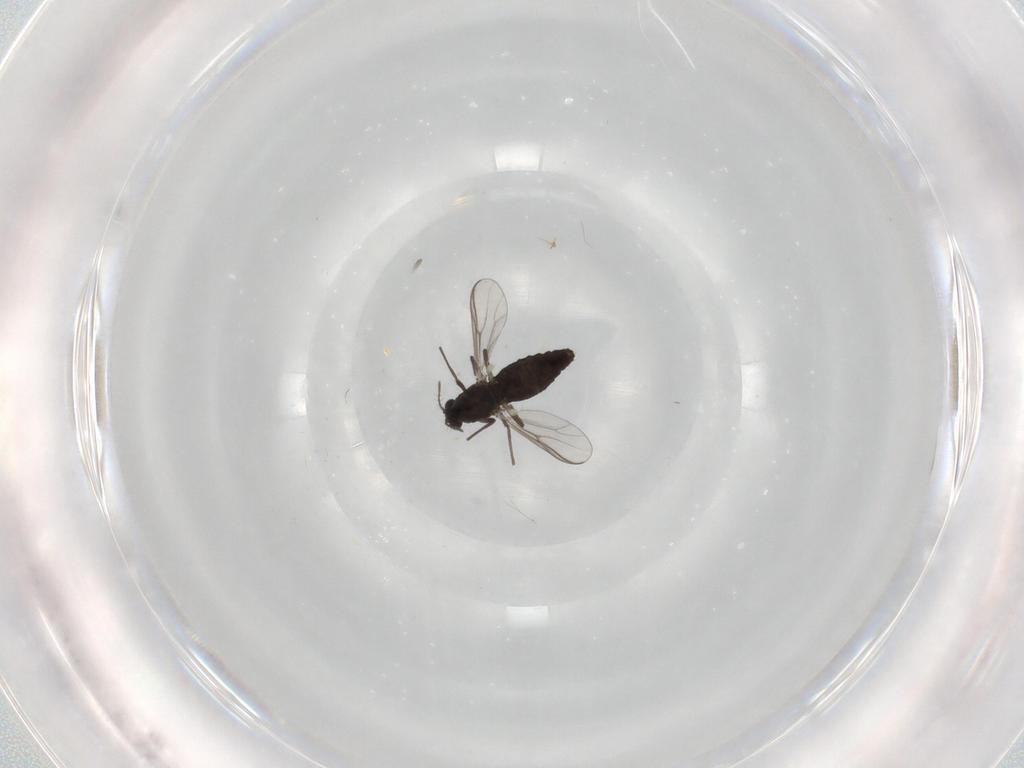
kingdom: Animalia
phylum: Arthropoda
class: Insecta
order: Diptera
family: Chironomidae
